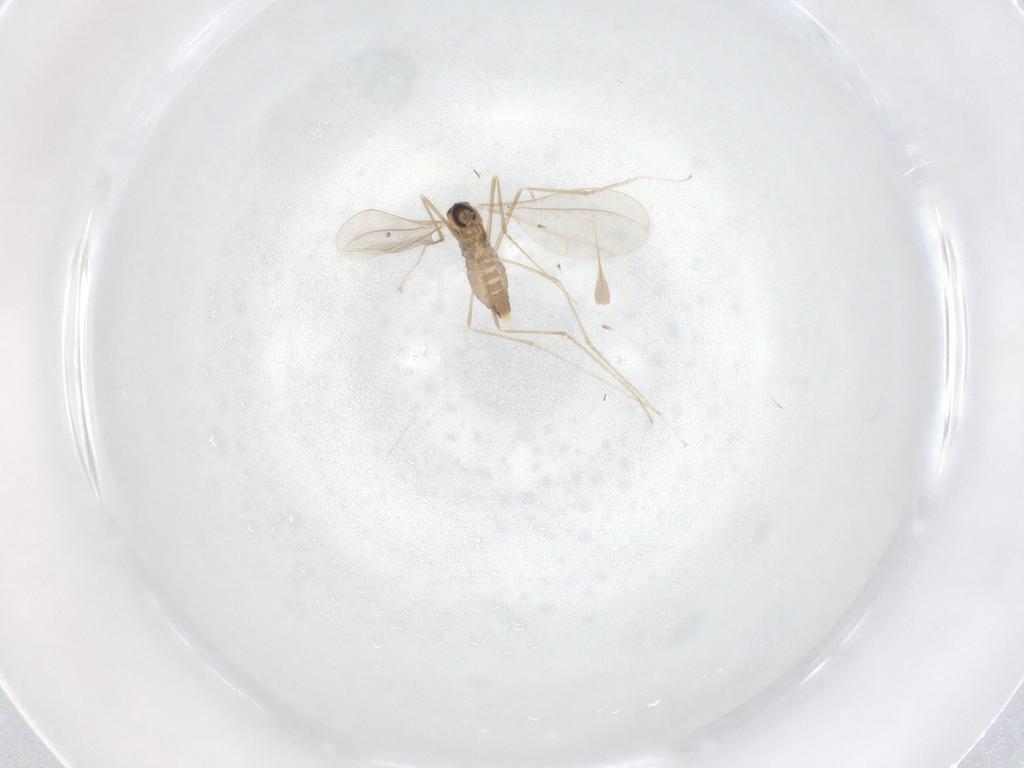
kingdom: Animalia
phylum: Arthropoda
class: Insecta
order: Diptera
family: Cecidomyiidae
